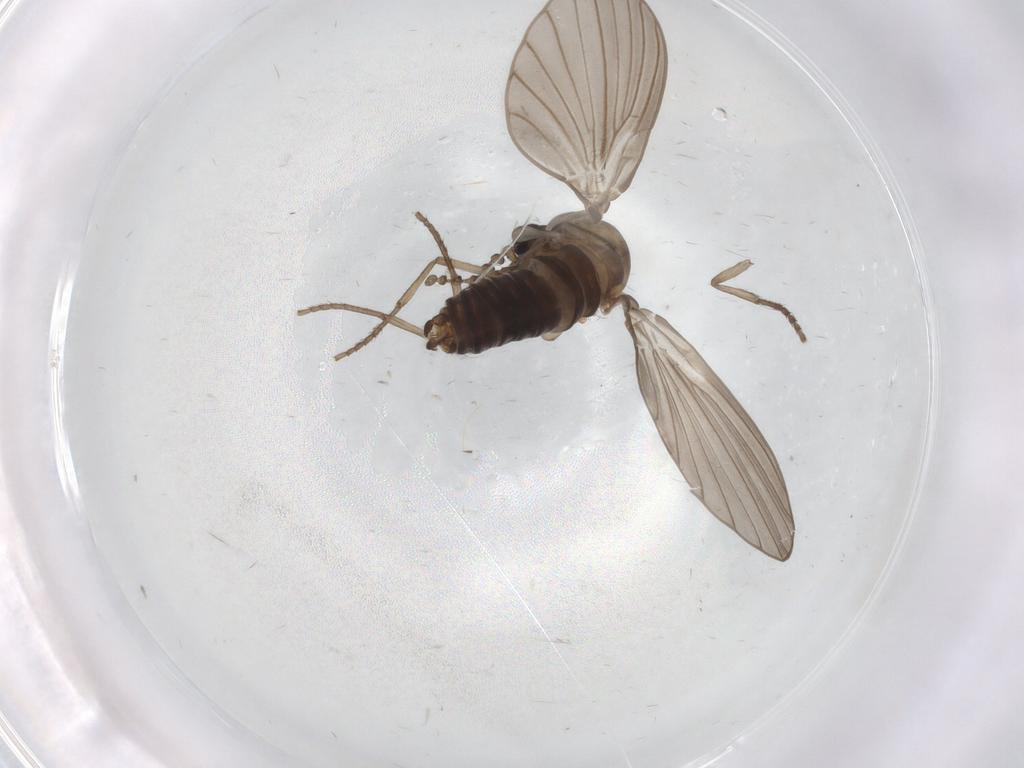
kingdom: Animalia
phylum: Arthropoda
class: Insecta
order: Diptera
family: Psychodidae
